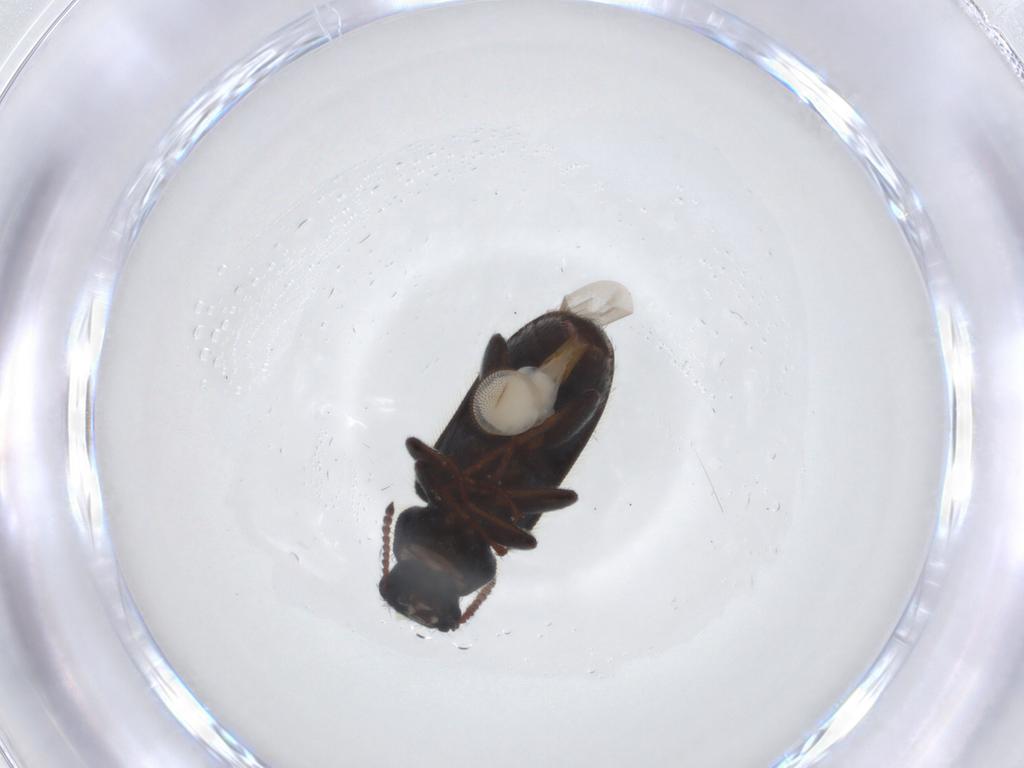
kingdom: Animalia
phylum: Arthropoda
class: Insecta
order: Coleoptera
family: Melyridae
